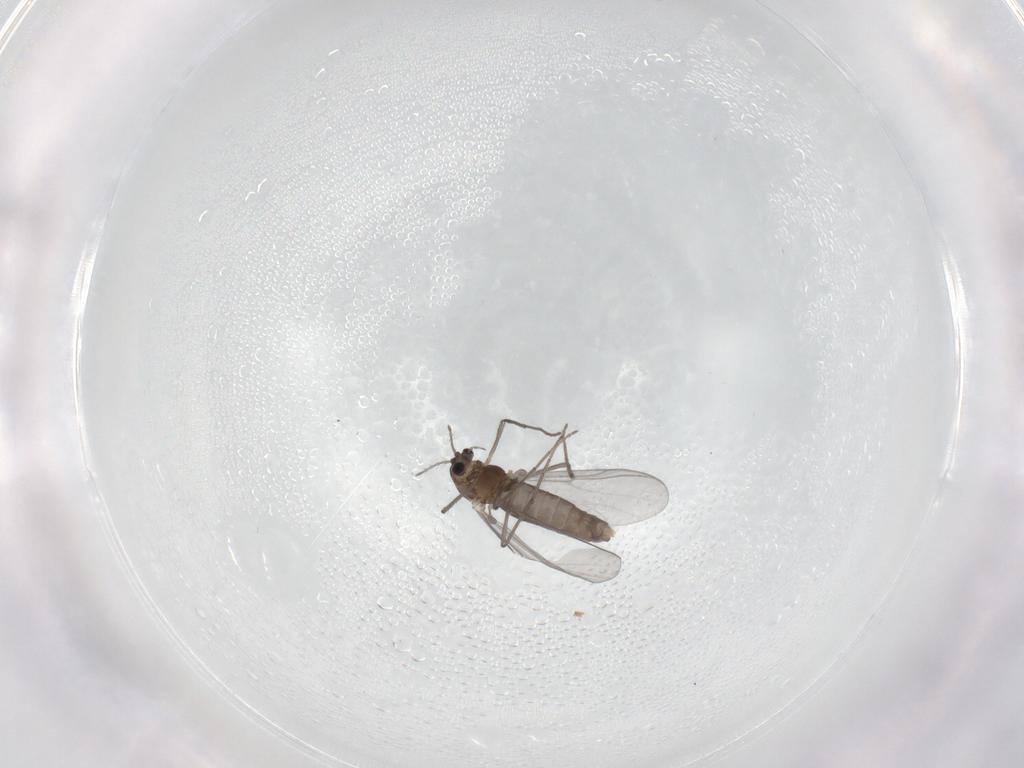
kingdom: Animalia
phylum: Arthropoda
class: Insecta
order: Diptera
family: Chironomidae
